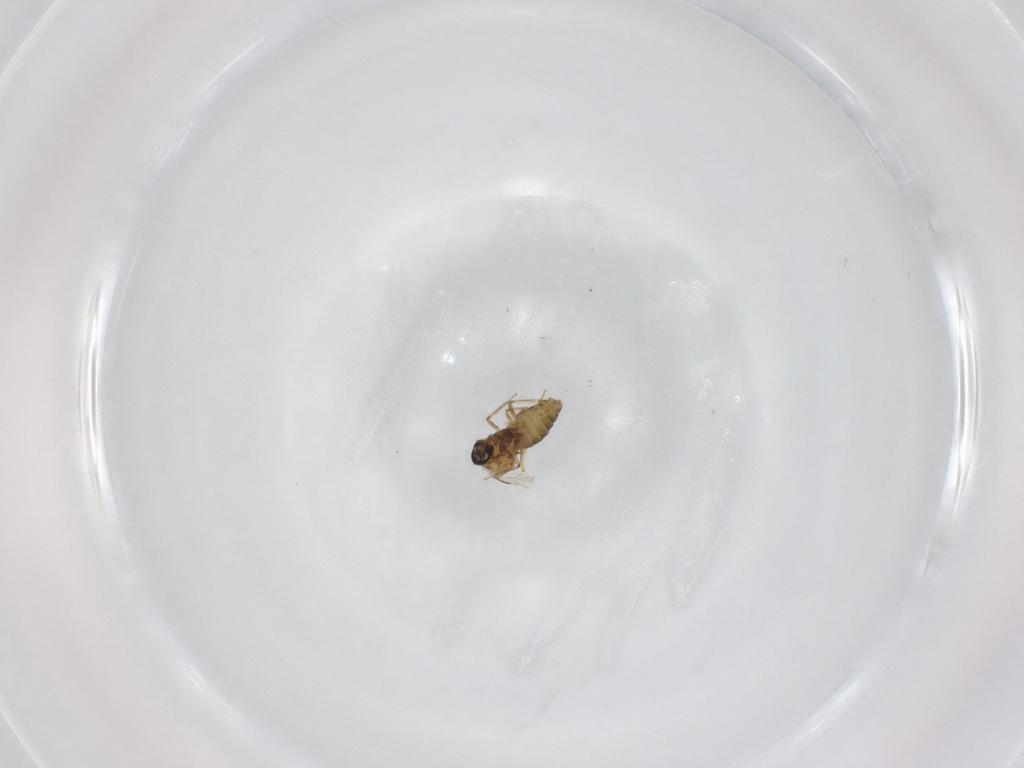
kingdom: Animalia
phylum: Arthropoda
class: Insecta
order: Diptera
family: Ceratopogonidae
